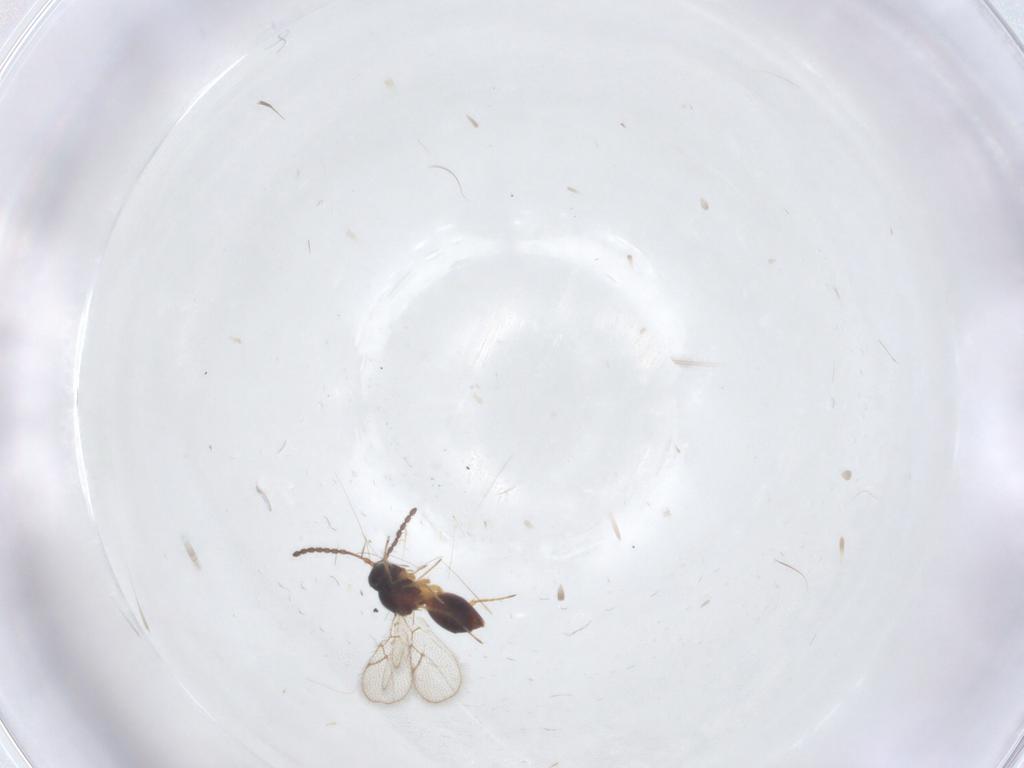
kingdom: Animalia
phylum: Arthropoda
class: Insecta
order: Hymenoptera
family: Figitidae
